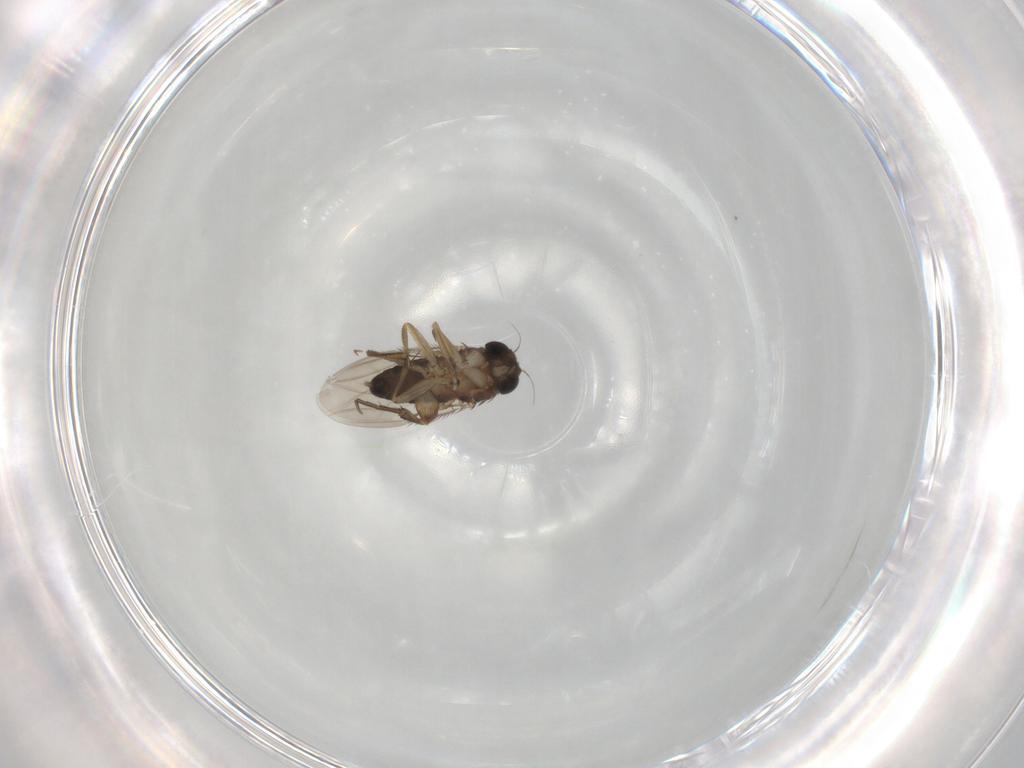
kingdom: Animalia
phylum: Arthropoda
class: Insecta
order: Diptera
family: Phoridae
